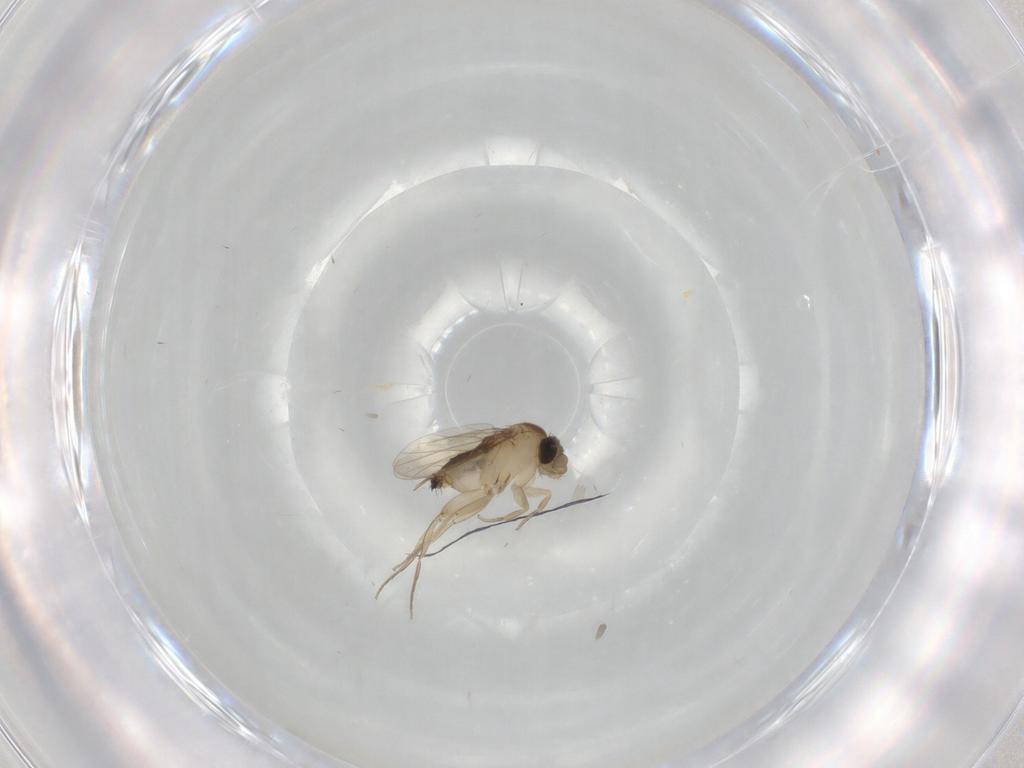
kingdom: Animalia
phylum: Arthropoda
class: Insecta
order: Diptera
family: Phoridae
